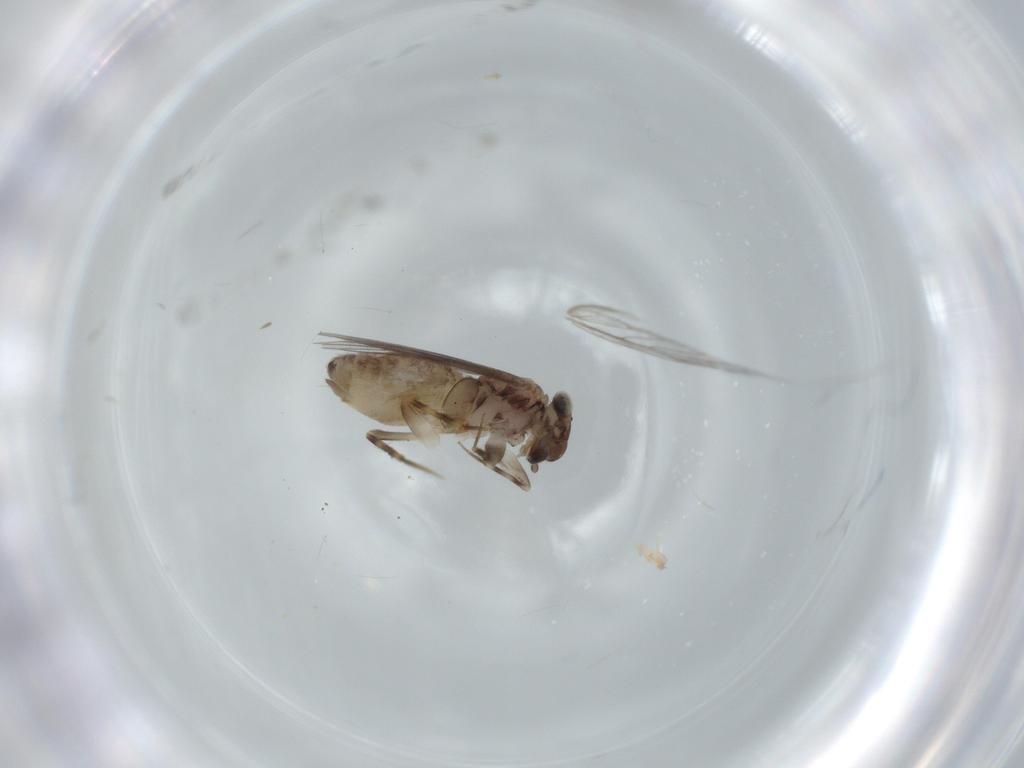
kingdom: Animalia
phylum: Arthropoda
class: Insecta
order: Psocodea
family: Lepidopsocidae
